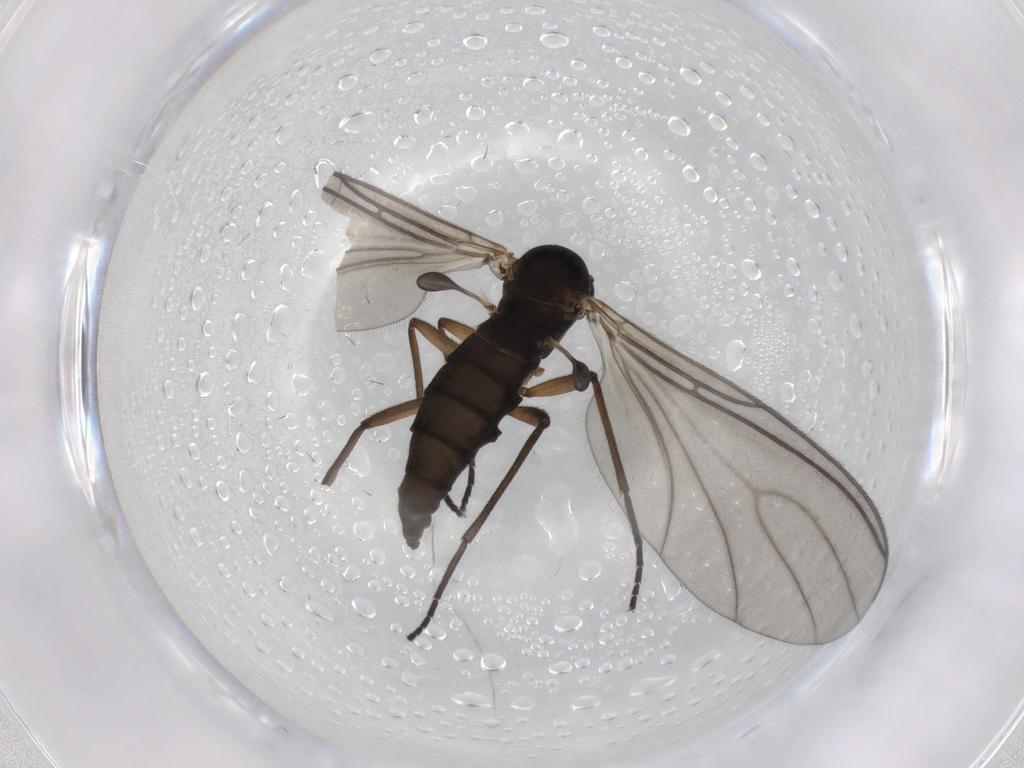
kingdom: Animalia
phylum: Arthropoda
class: Insecta
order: Diptera
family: Sciaridae
